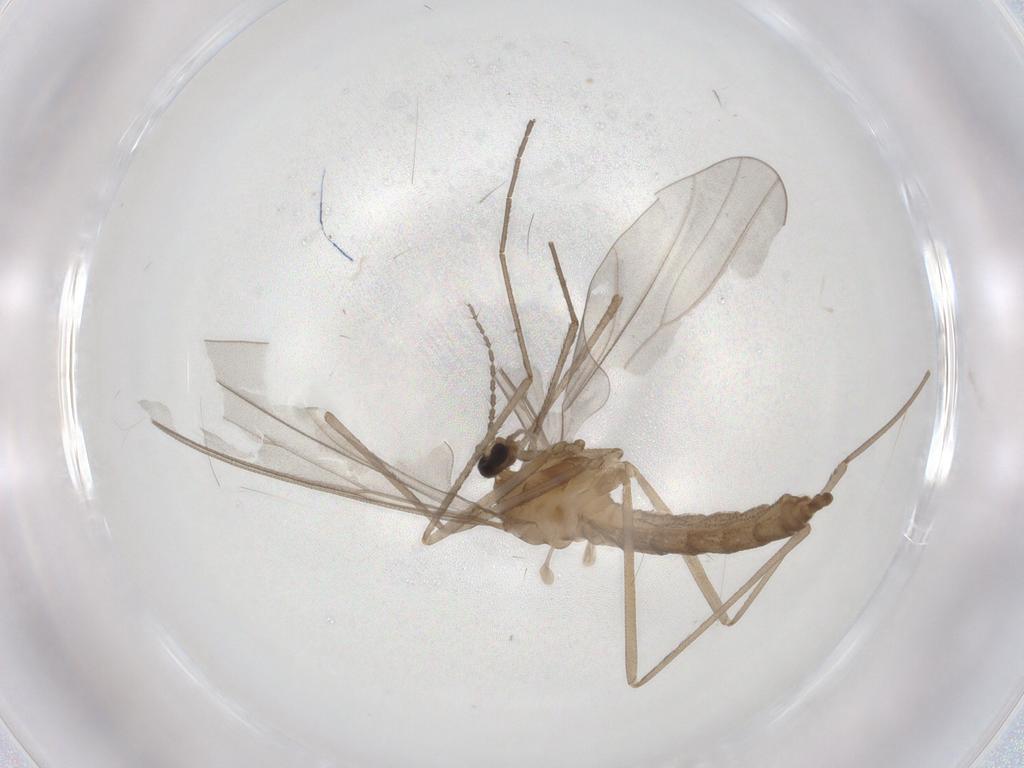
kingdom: Animalia
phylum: Arthropoda
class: Insecta
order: Diptera
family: Cecidomyiidae
